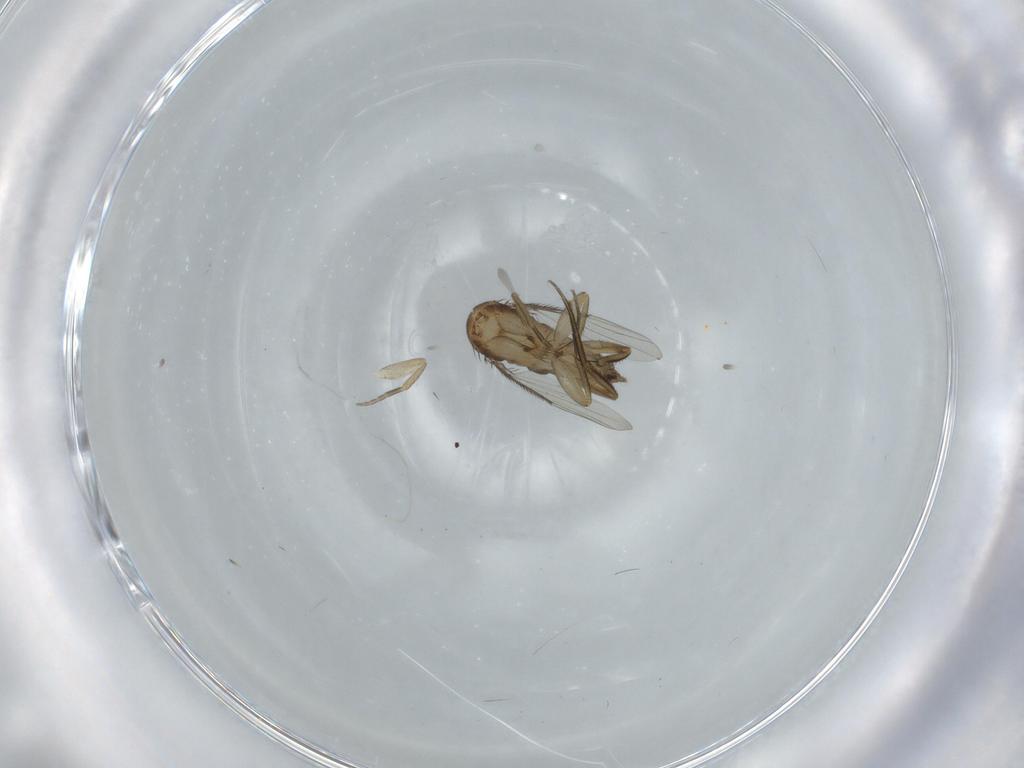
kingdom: Animalia
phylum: Arthropoda
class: Insecta
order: Diptera
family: Phoridae
